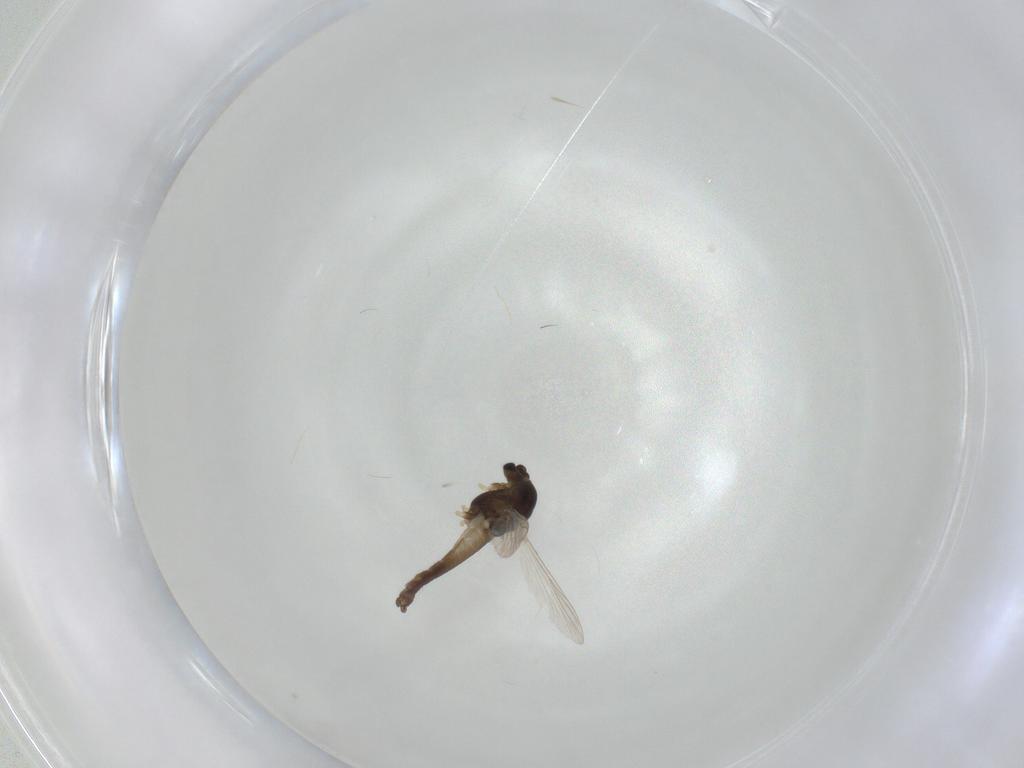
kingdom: Animalia
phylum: Arthropoda
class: Insecta
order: Diptera
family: Chironomidae
